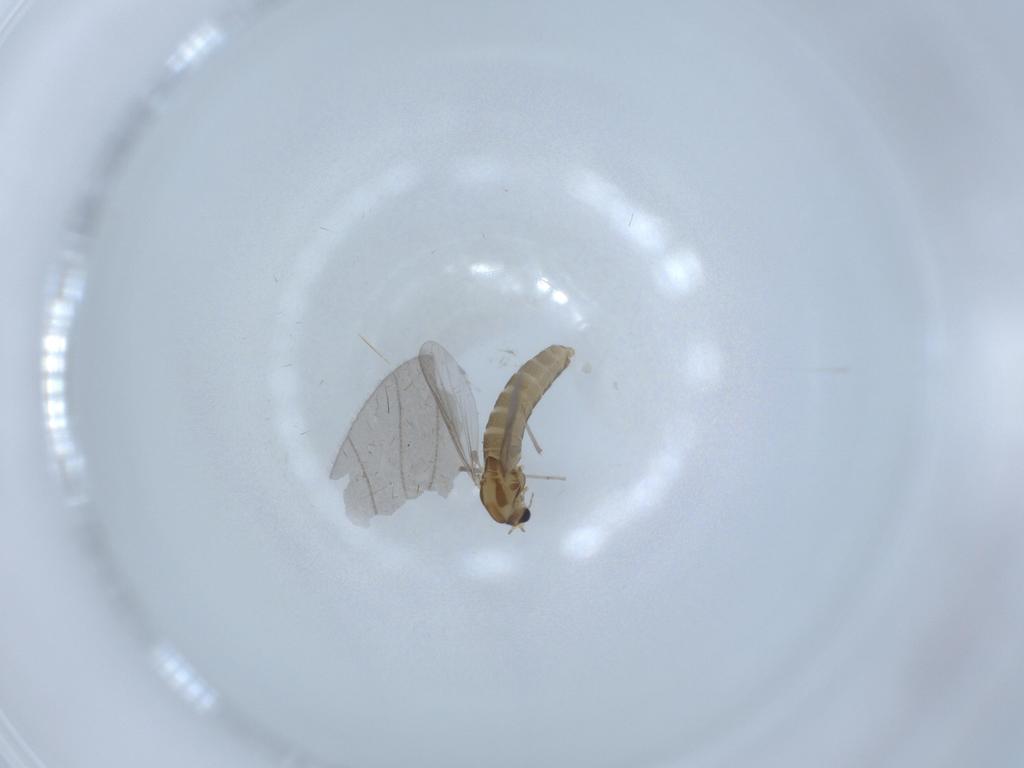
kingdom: Animalia
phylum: Arthropoda
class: Insecta
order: Diptera
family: Chironomidae
